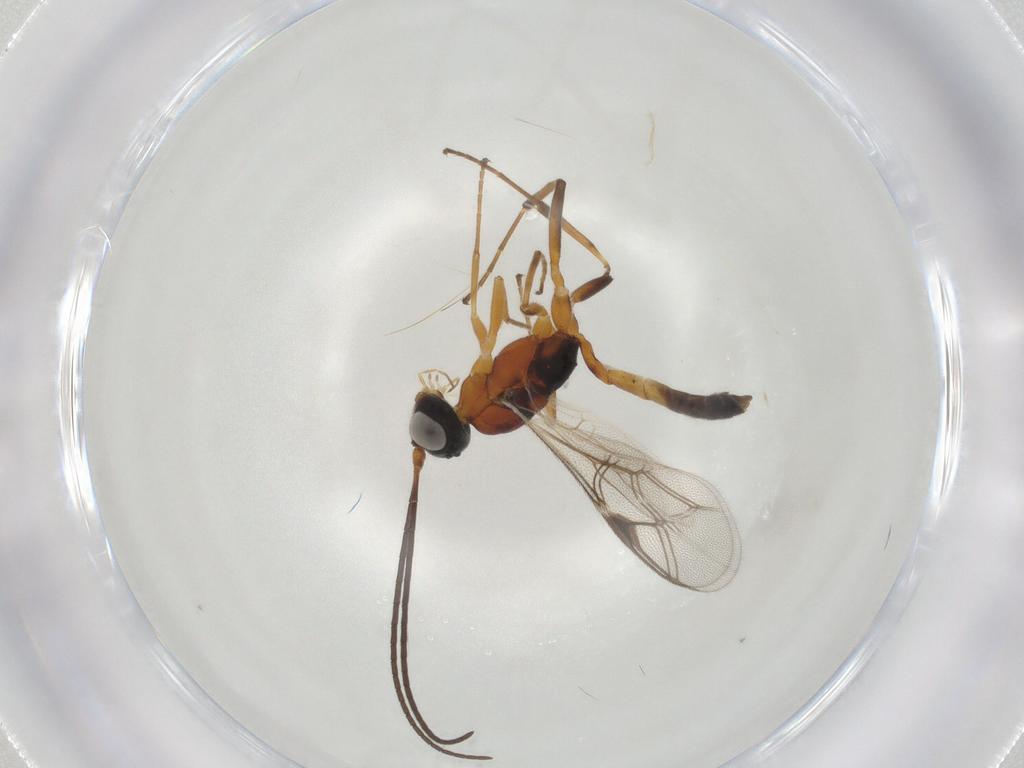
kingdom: Animalia
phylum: Arthropoda
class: Insecta
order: Hymenoptera
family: Ichneumonidae
